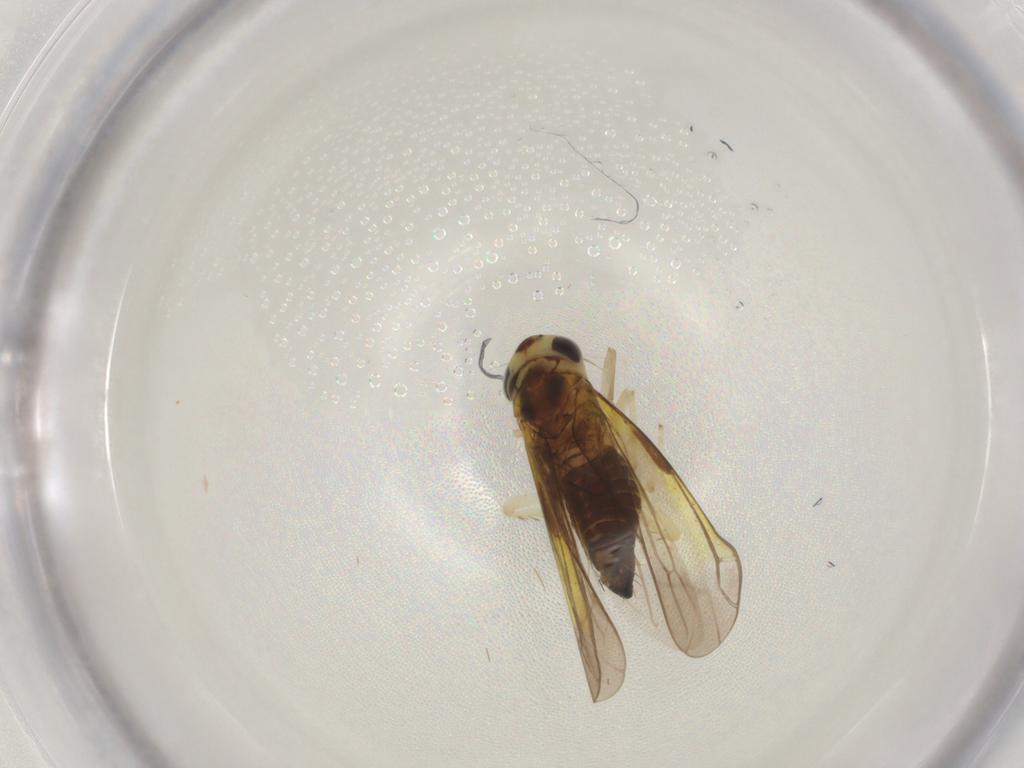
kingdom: Animalia
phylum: Arthropoda
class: Insecta
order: Hemiptera
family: Cicadellidae
